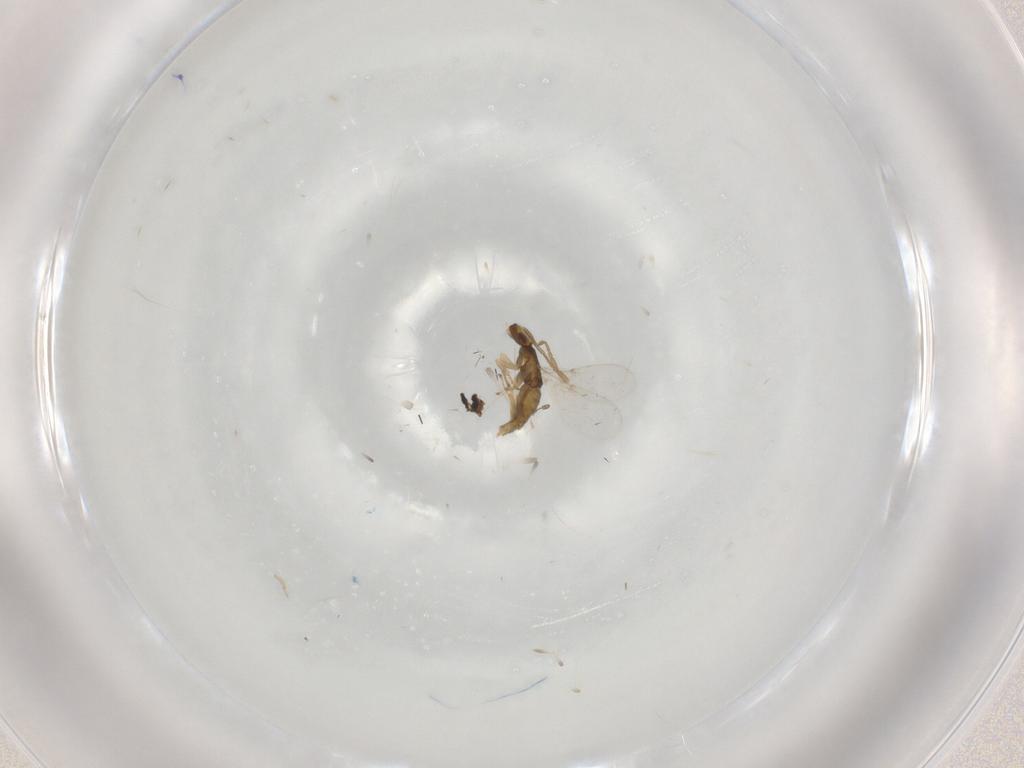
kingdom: Animalia
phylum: Arthropoda
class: Insecta
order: Hymenoptera
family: Encyrtidae
